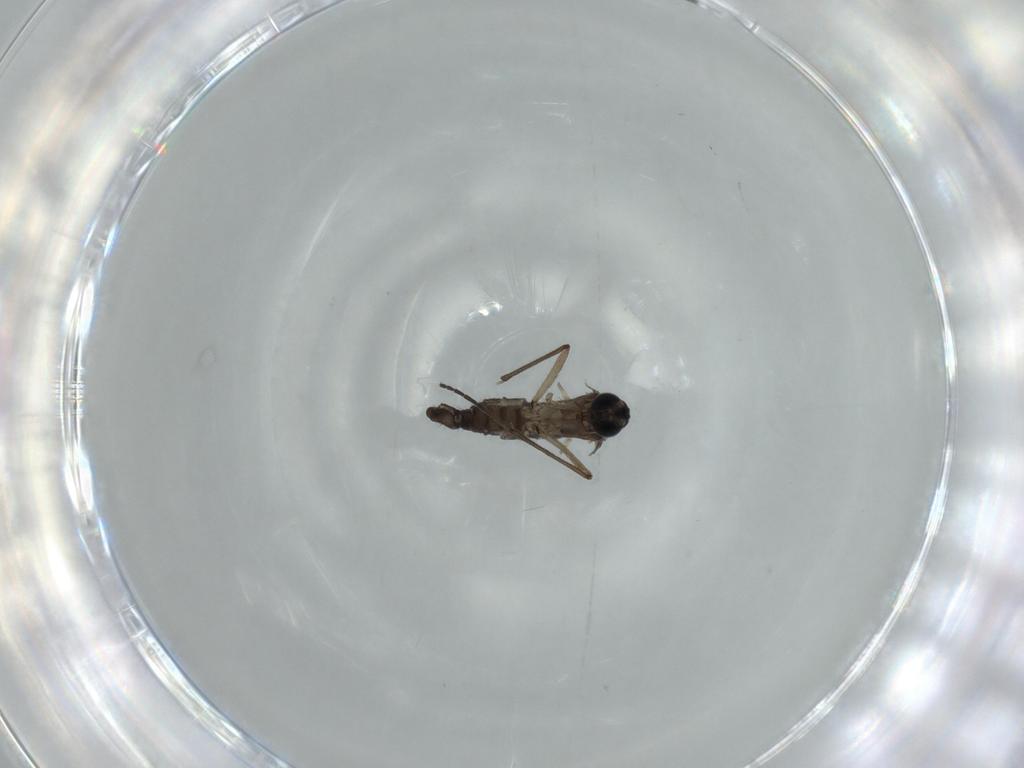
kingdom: Animalia
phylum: Arthropoda
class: Insecta
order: Diptera
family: Sciaridae
